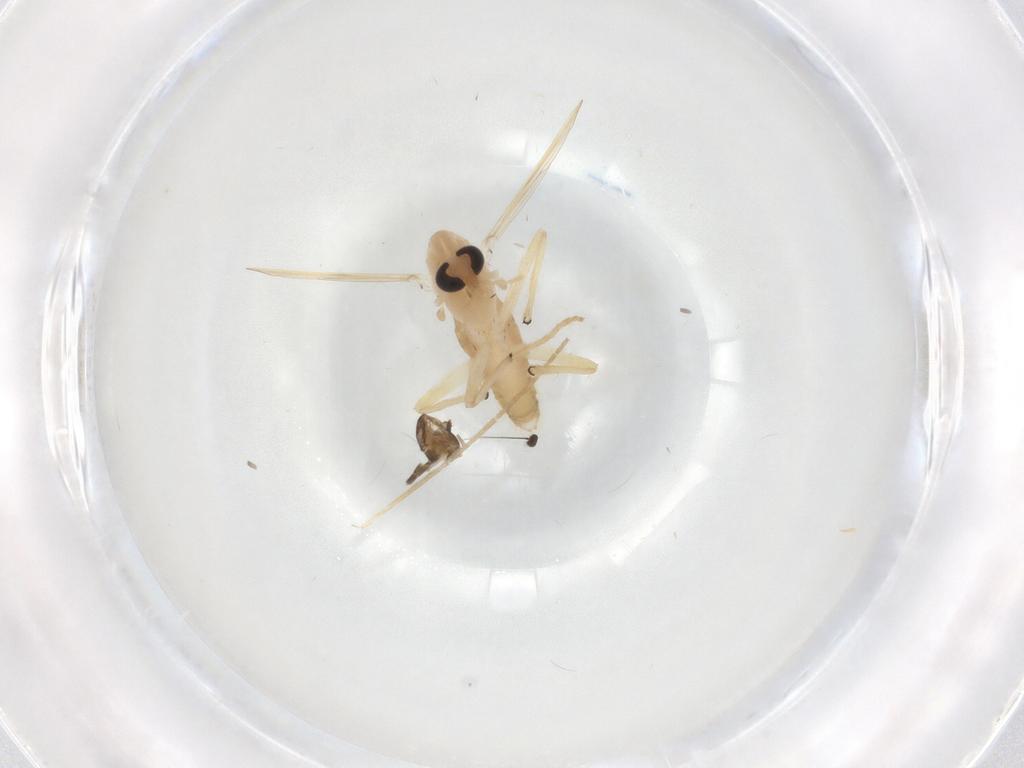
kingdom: Animalia
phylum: Arthropoda
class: Insecta
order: Diptera
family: Chironomidae
